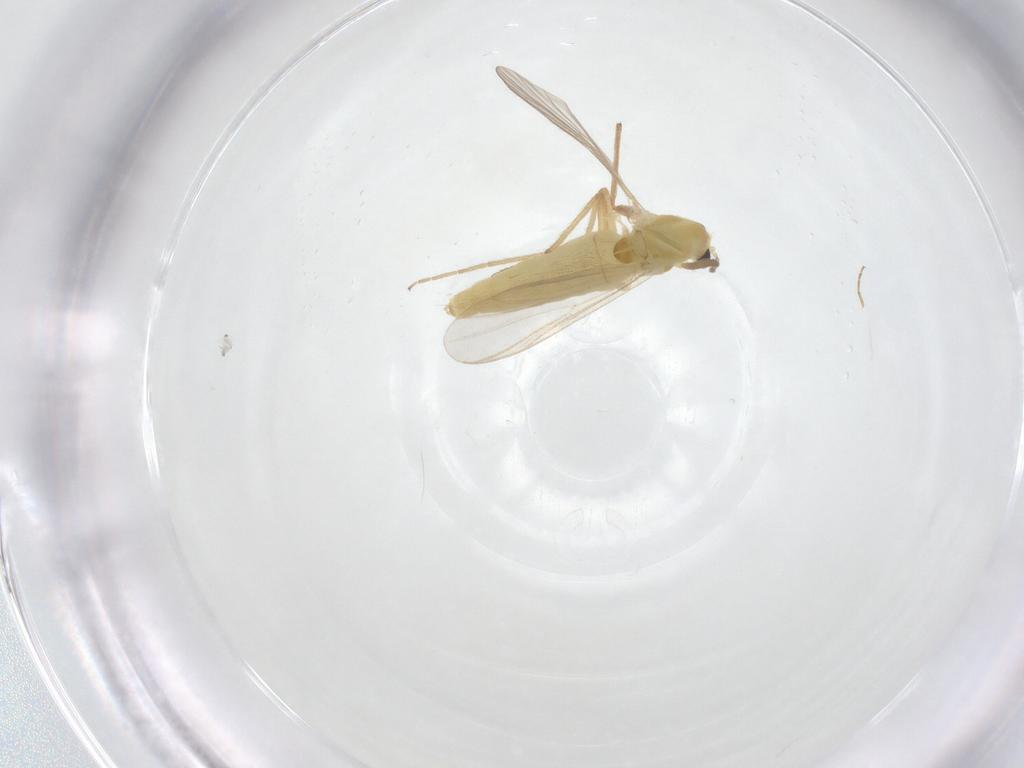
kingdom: Animalia
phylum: Arthropoda
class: Insecta
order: Diptera
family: Chironomidae
